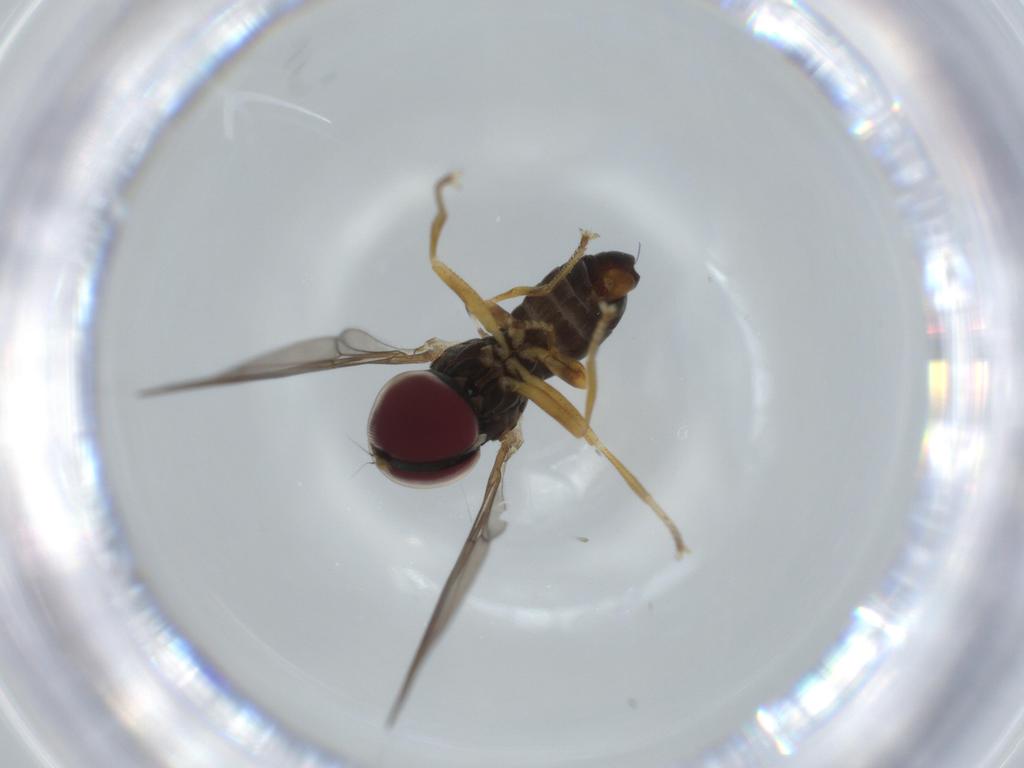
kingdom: Animalia
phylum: Arthropoda
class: Insecta
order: Diptera
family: Pipunculidae
